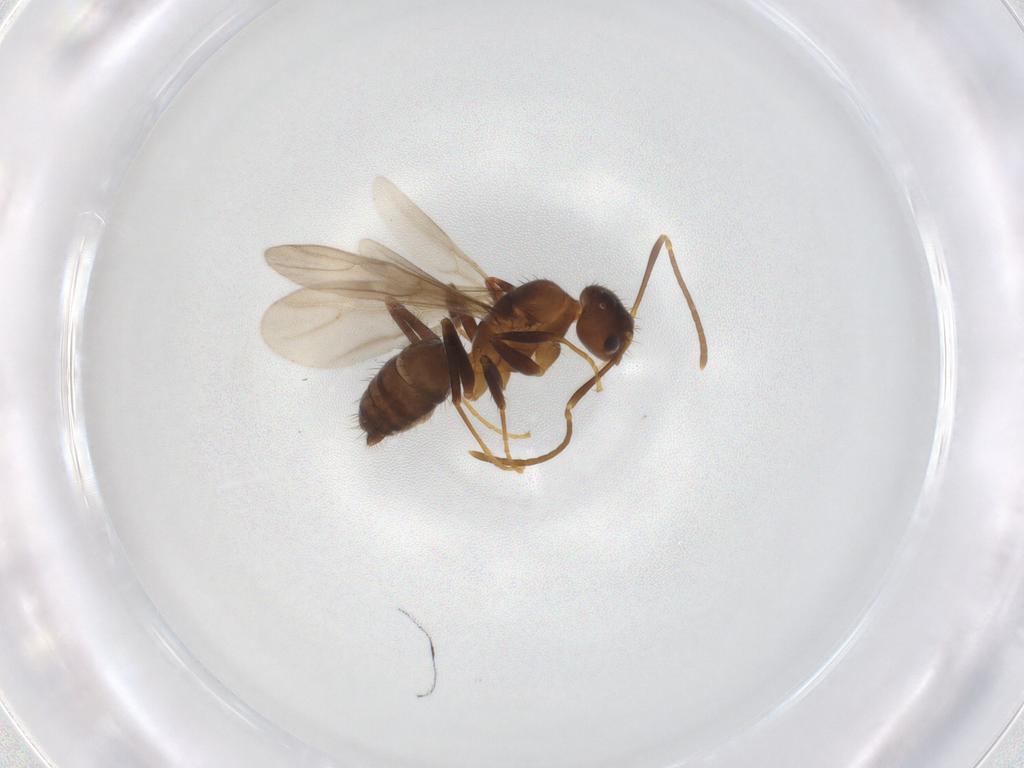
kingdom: Animalia
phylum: Arthropoda
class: Insecta
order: Hymenoptera
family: Formicidae
